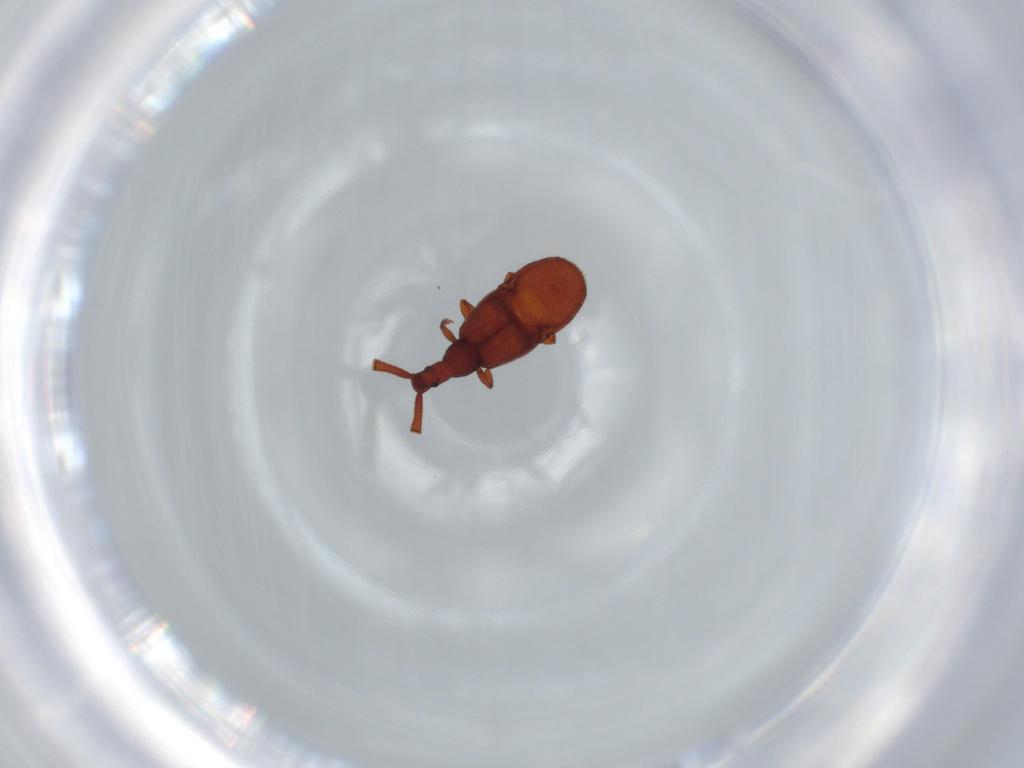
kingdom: Animalia
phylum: Arthropoda
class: Insecta
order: Coleoptera
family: Staphylinidae
